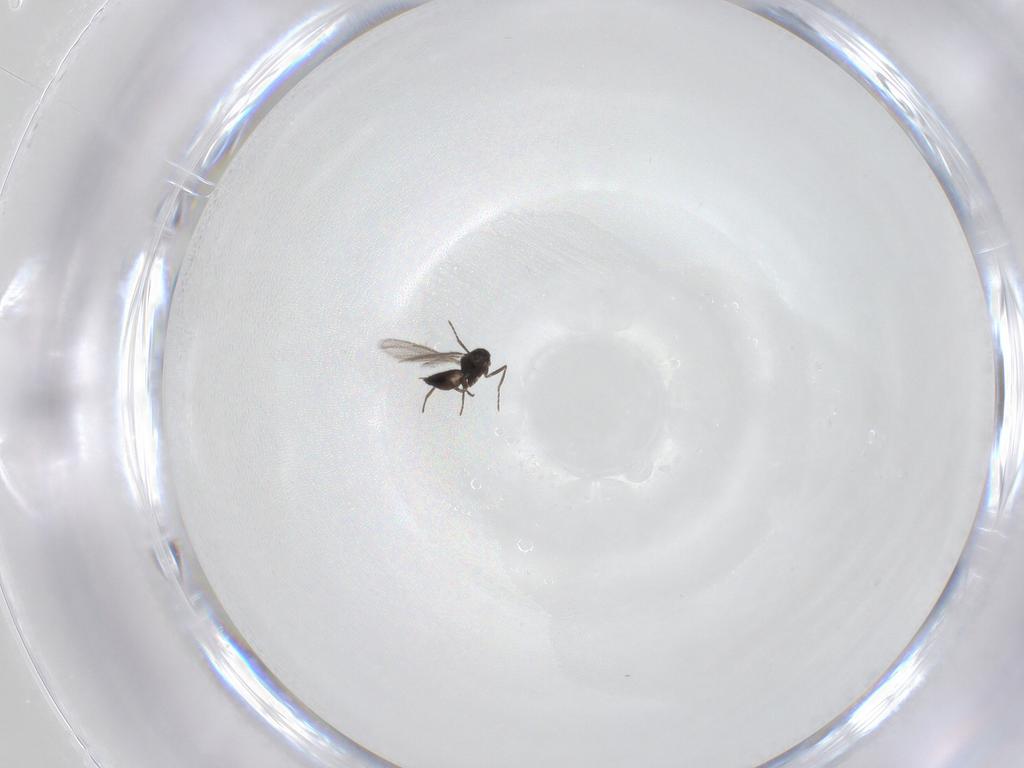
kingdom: Animalia
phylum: Arthropoda
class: Insecta
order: Hymenoptera
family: Eulophidae
